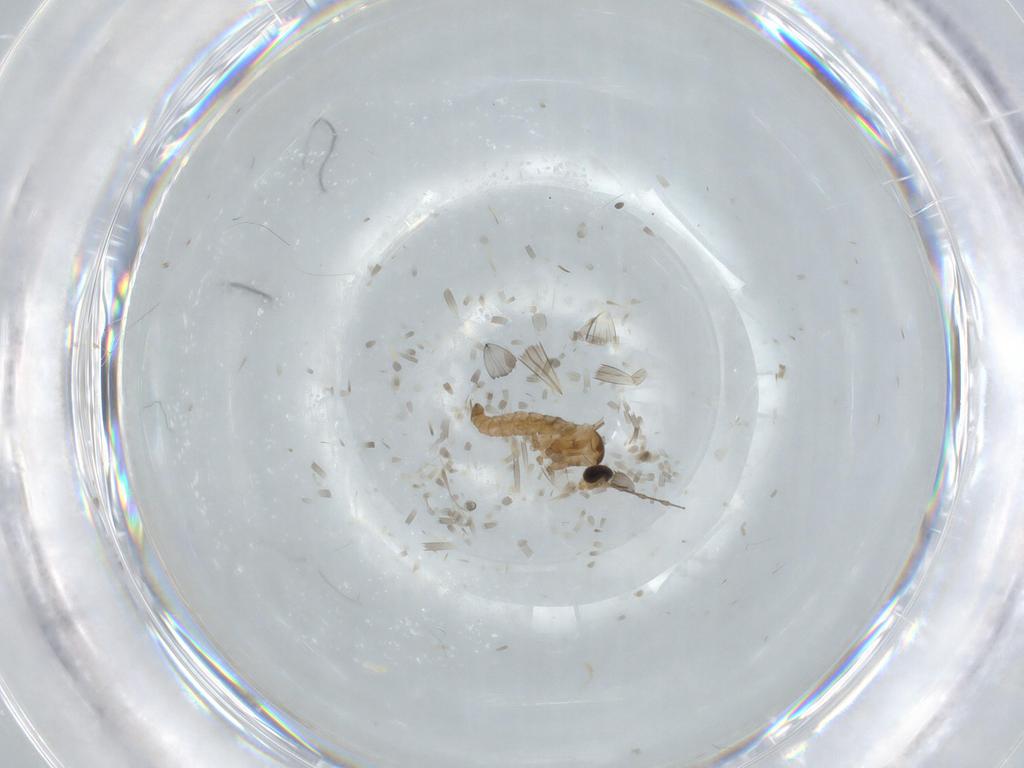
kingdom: Animalia
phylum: Arthropoda
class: Insecta
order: Diptera
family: Cecidomyiidae
